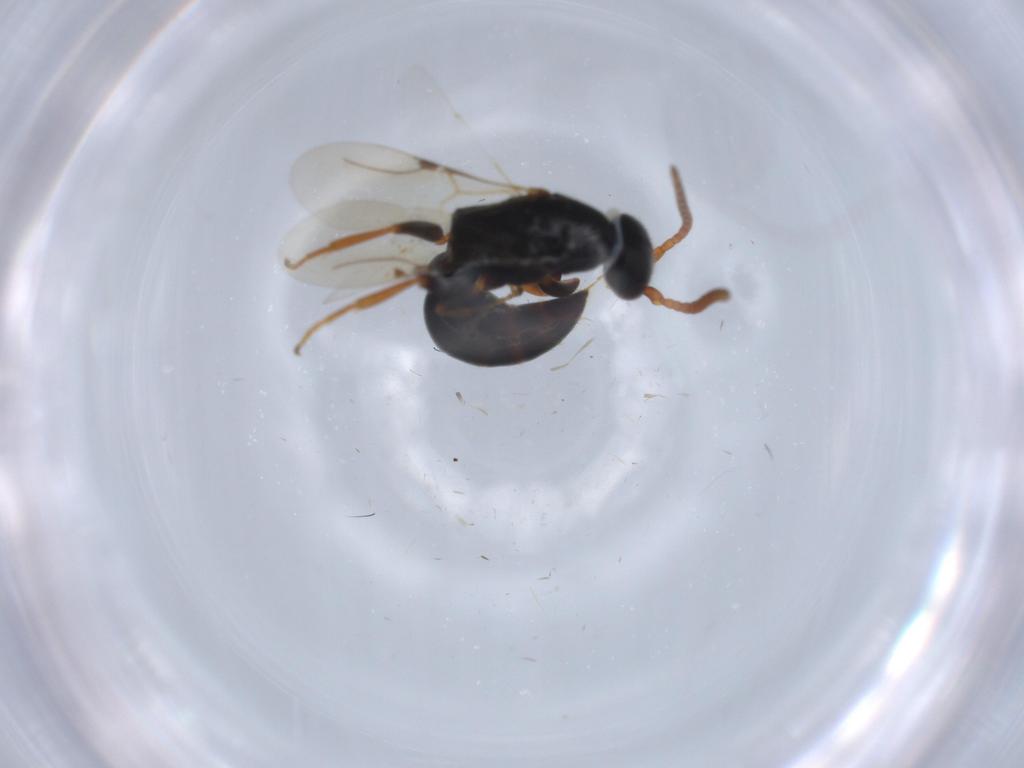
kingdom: Animalia
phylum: Arthropoda
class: Insecta
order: Hymenoptera
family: Bethylidae
